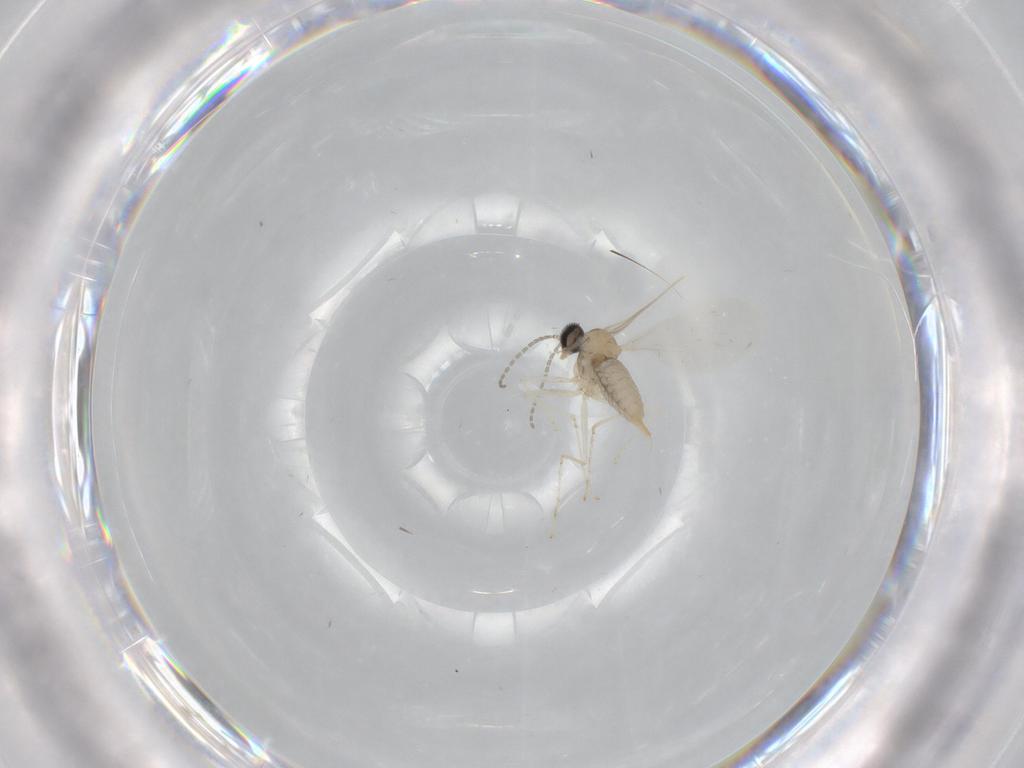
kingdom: Animalia
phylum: Arthropoda
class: Insecta
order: Diptera
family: Cecidomyiidae
